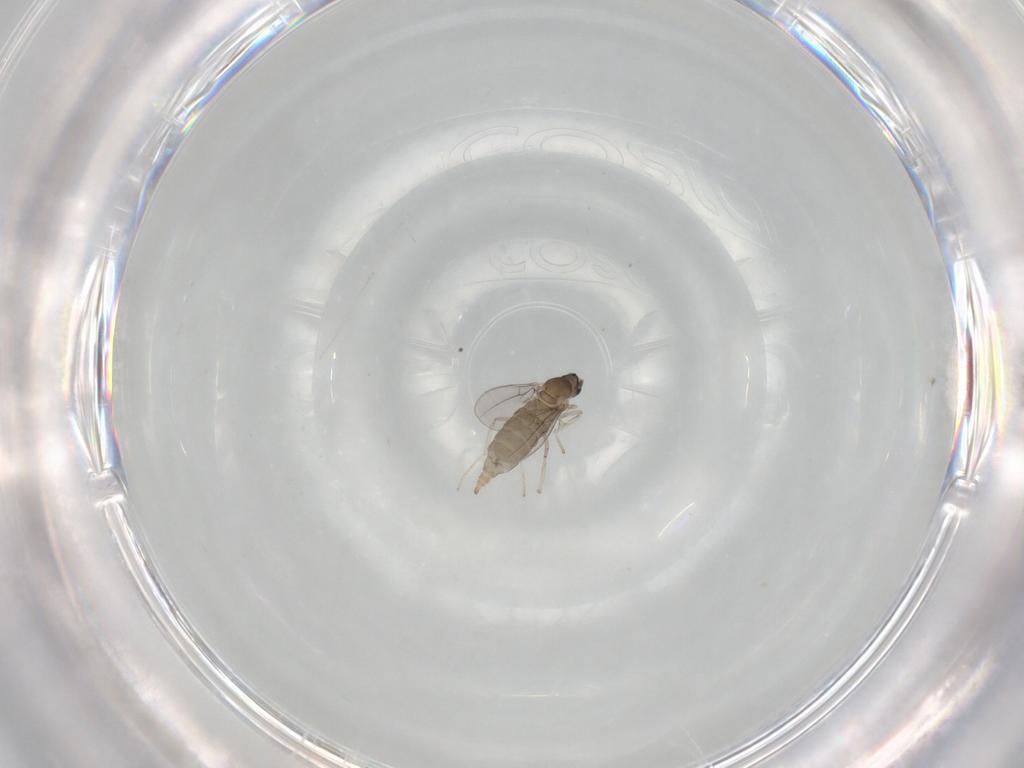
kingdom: Animalia
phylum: Arthropoda
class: Insecta
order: Diptera
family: Cecidomyiidae
